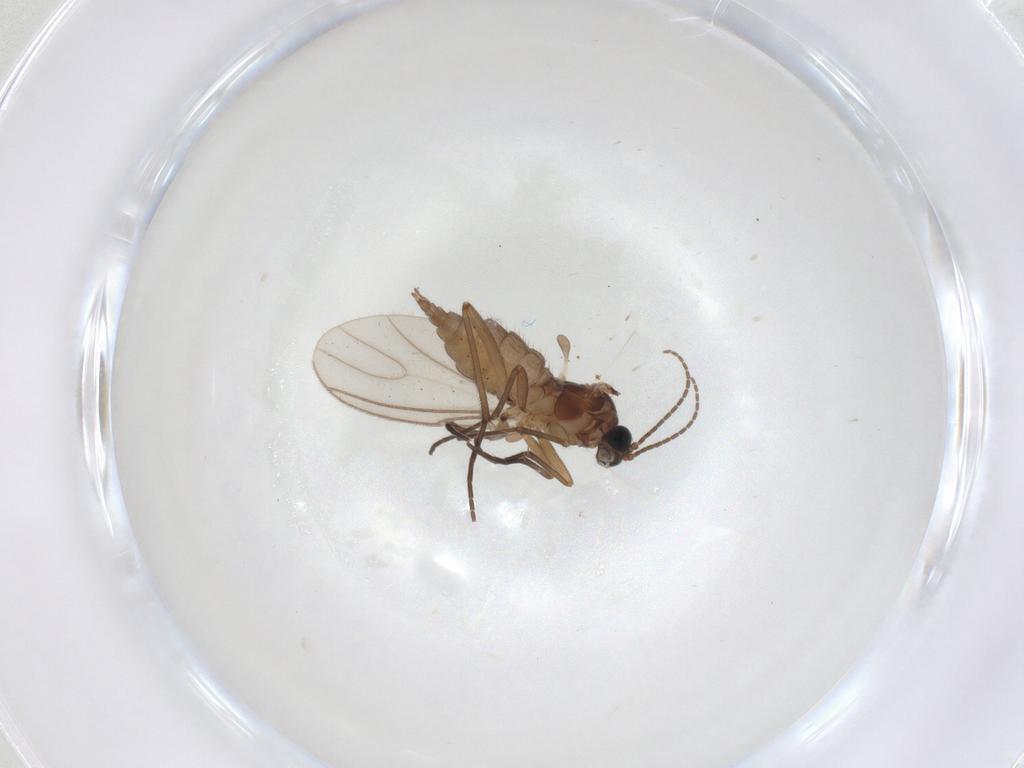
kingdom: Animalia
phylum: Arthropoda
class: Insecta
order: Diptera
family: Sciaridae
